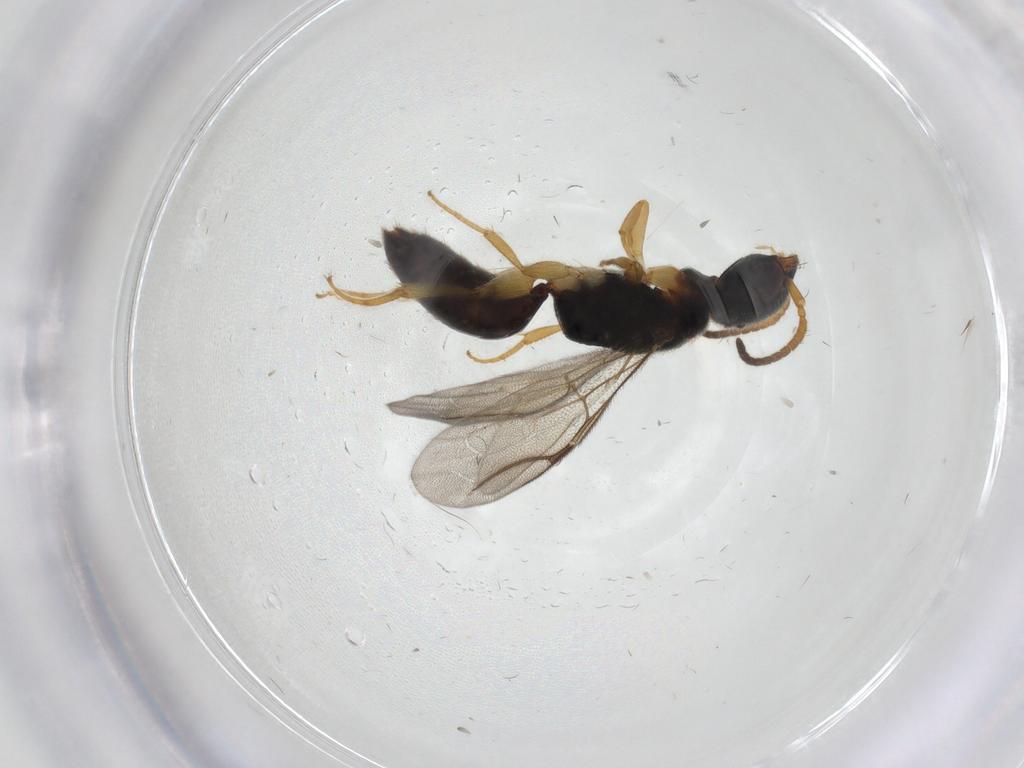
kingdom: Animalia
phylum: Arthropoda
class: Insecta
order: Hymenoptera
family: Bethylidae
